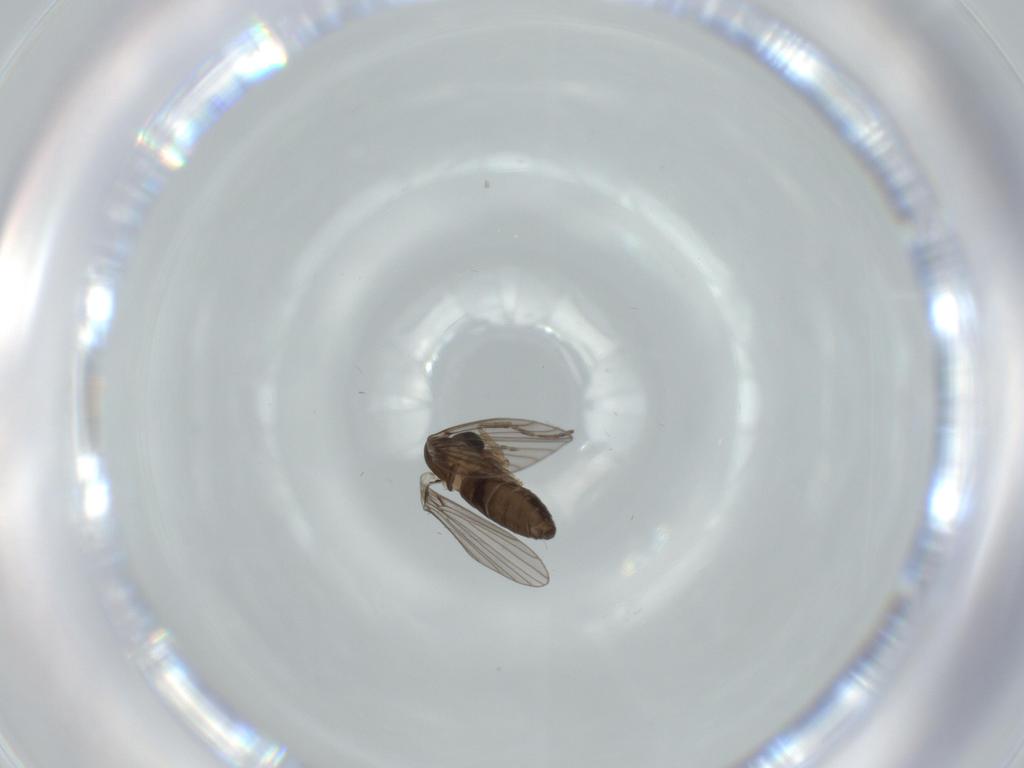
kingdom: Animalia
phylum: Arthropoda
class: Insecta
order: Diptera
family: Psychodidae
